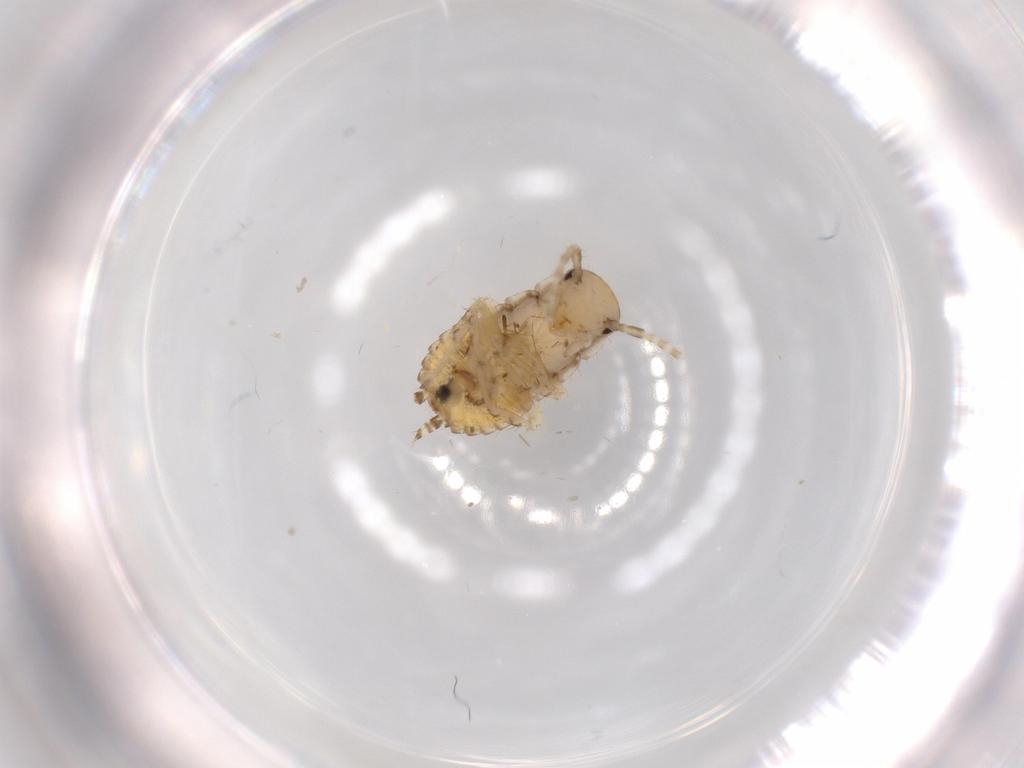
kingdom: Animalia
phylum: Arthropoda
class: Insecta
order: Blattodea
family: Ectobiidae
